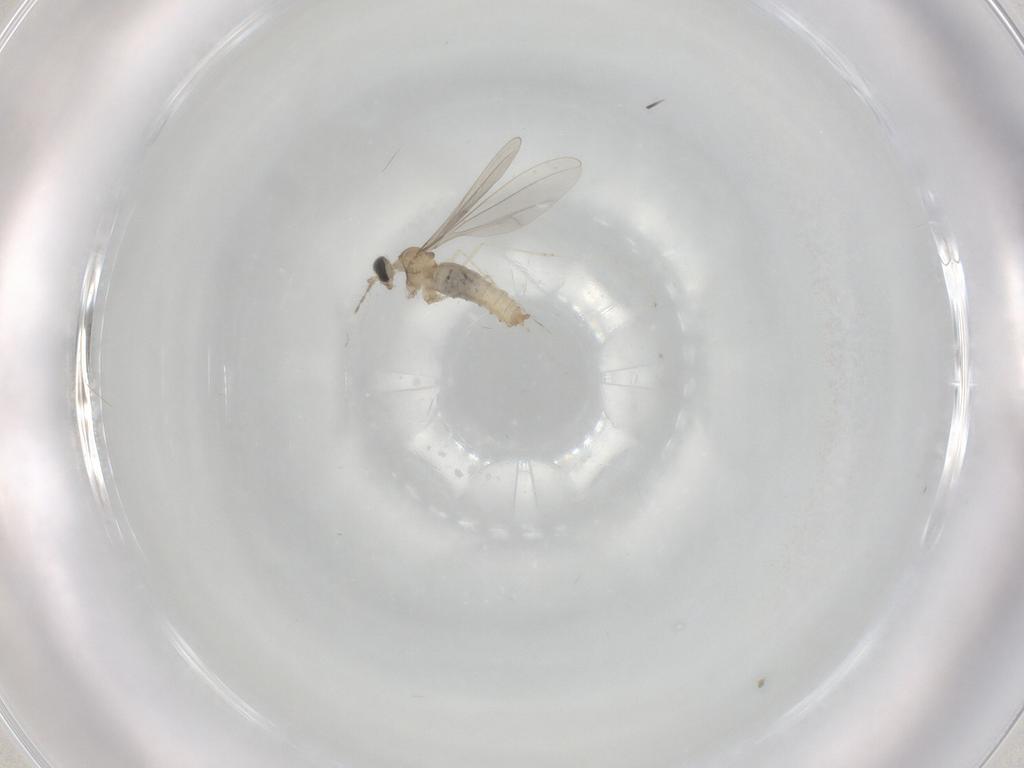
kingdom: Animalia
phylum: Arthropoda
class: Insecta
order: Diptera
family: Cecidomyiidae
